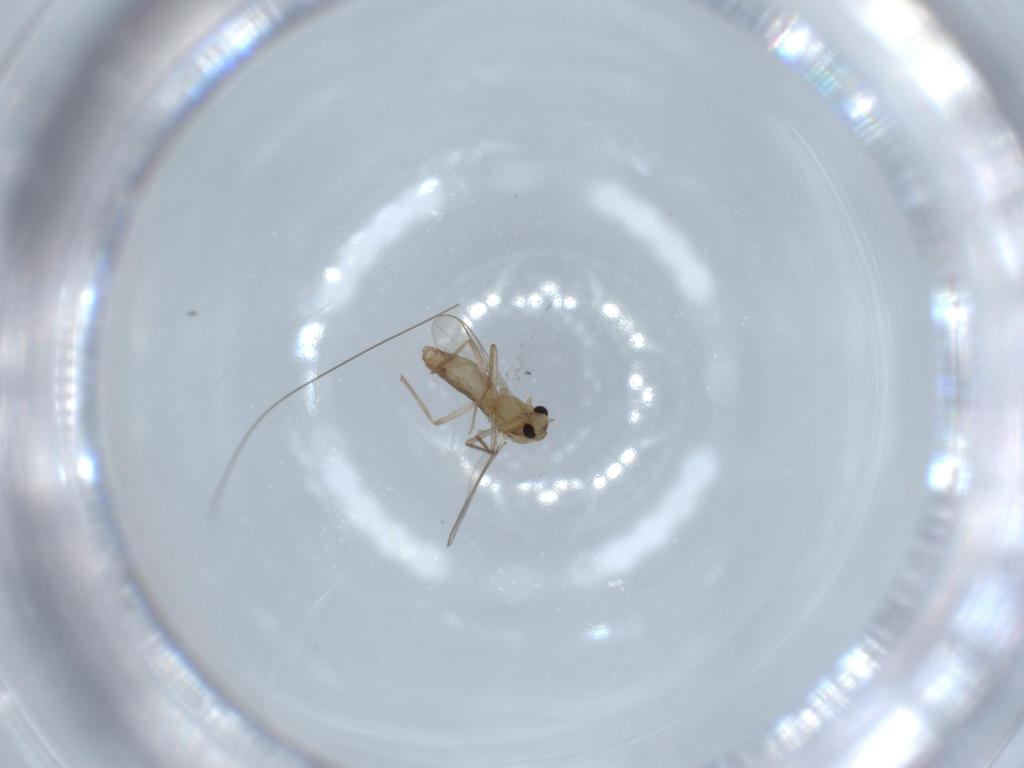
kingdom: Animalia
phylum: Arthropoda
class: Insecta
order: Diptera
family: Chironomidae
